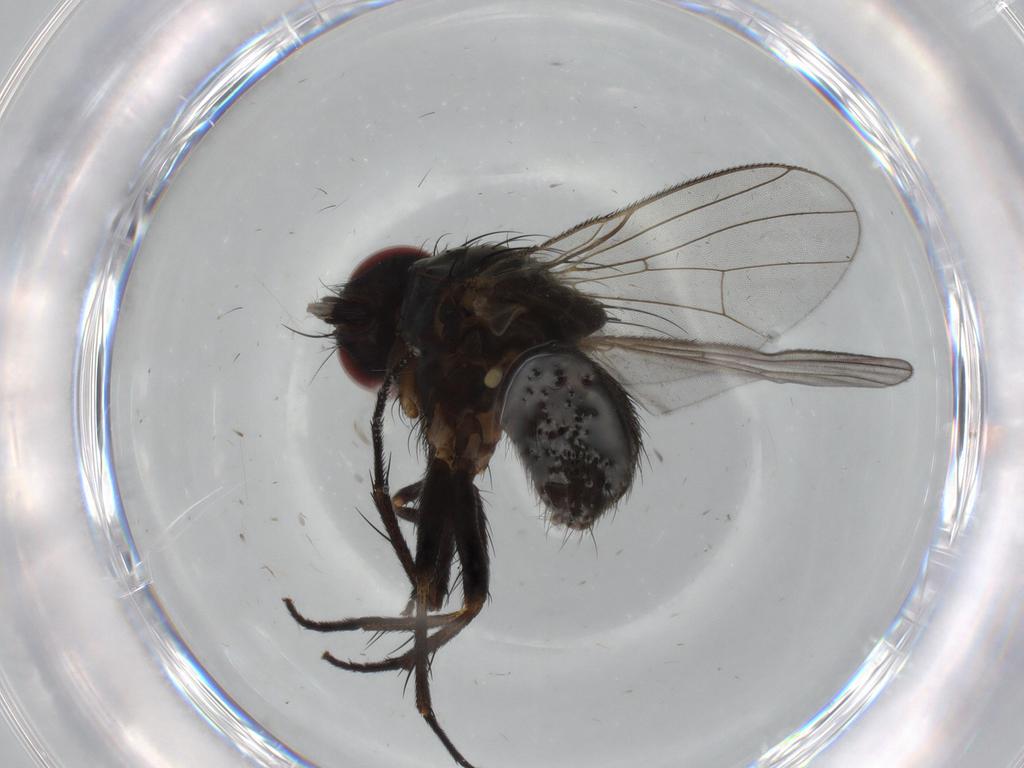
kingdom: Animalia
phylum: Arthropoda
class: Insecta
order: Diptera
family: Muscidae
